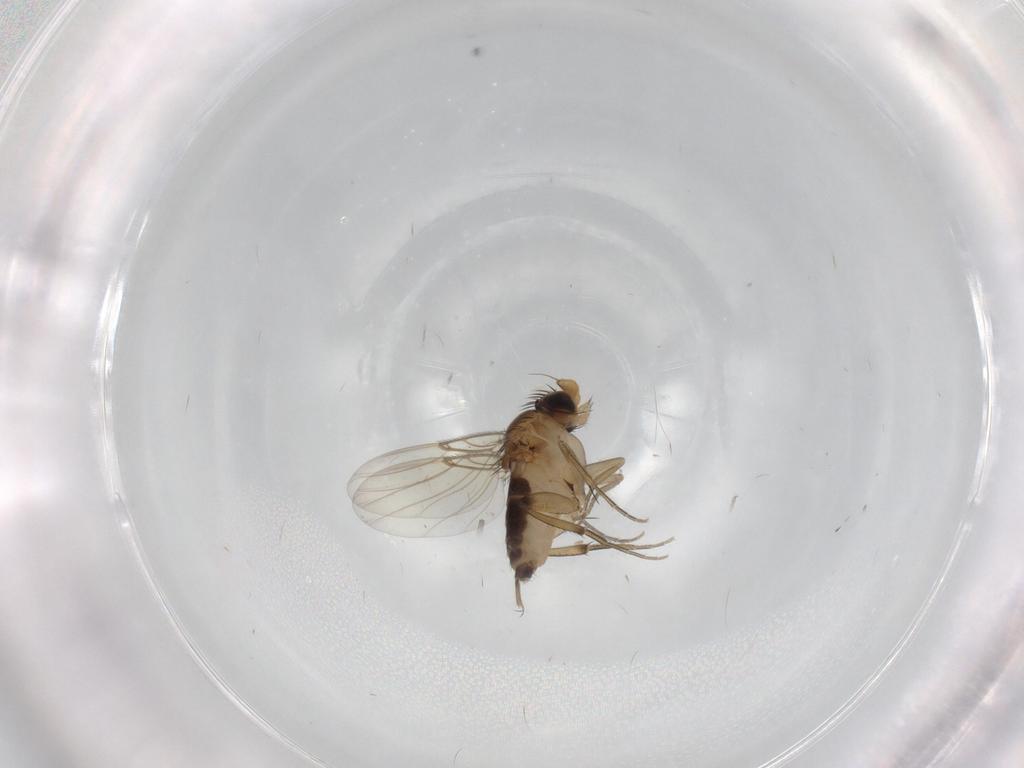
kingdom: Animalia
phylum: Arthropoda
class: Insecta
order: Diptera
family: Phoridae
